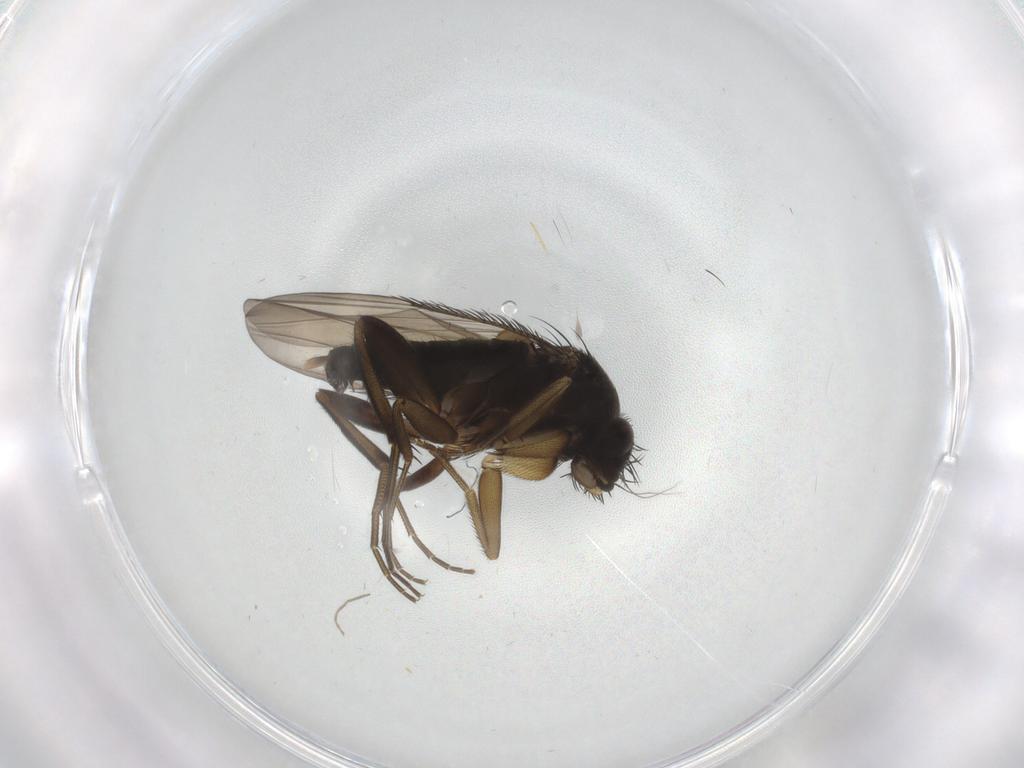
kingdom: Animalia
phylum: Arthropoda
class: Insecta
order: Diptera
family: Phoridae
